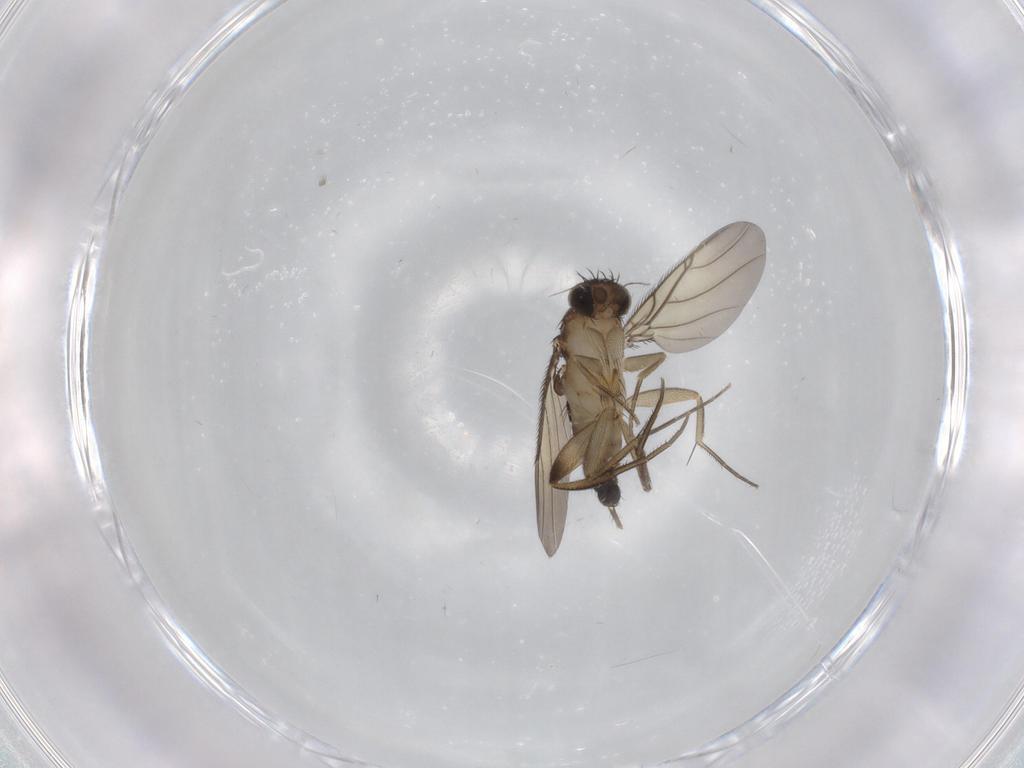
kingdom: Animalia
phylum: Arthropoda
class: Insecta
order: Diptera
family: Phoridae
